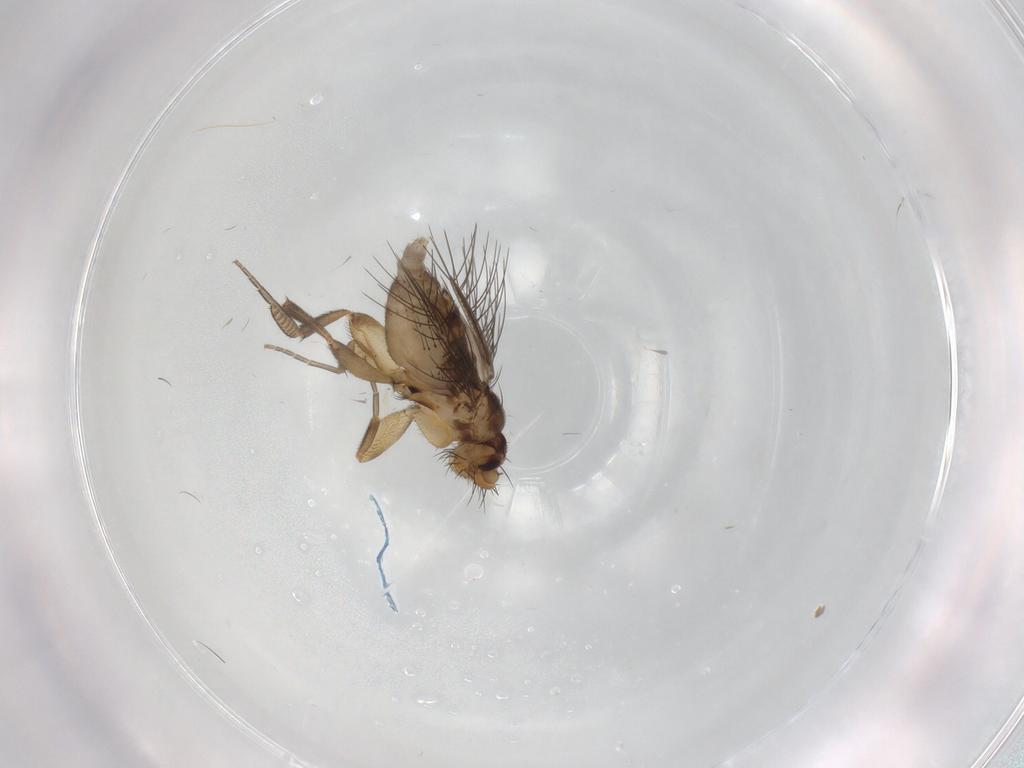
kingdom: Animalia
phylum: Arthropoda
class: Insecta
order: Diptera
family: Phoridae
